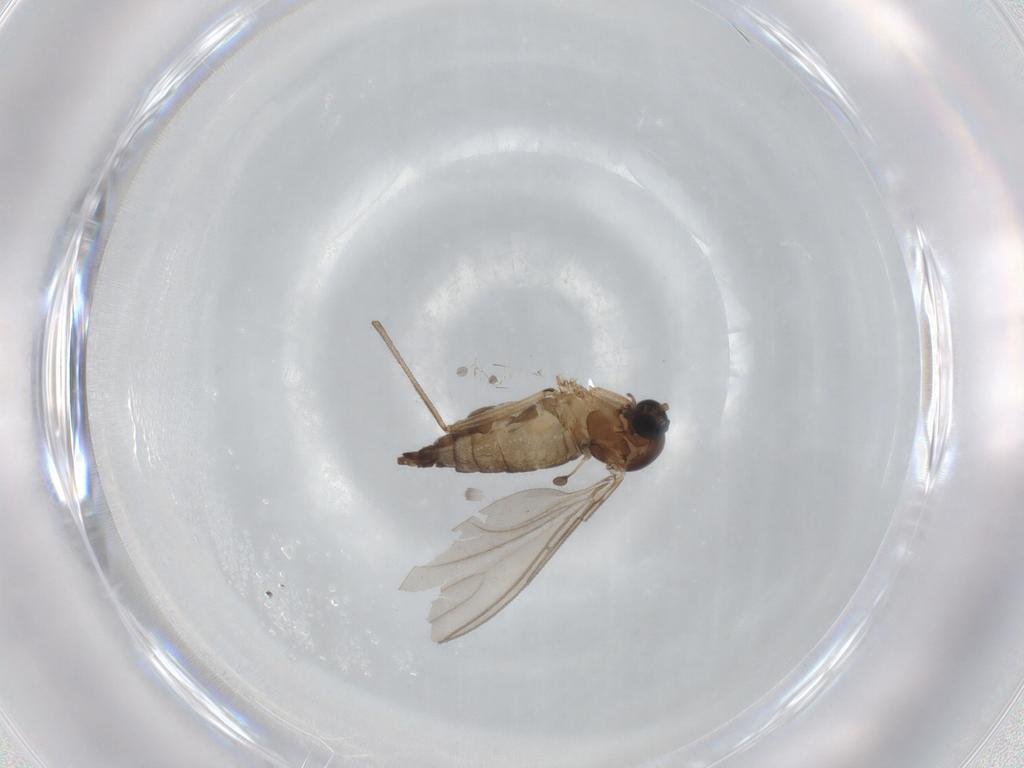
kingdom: Animalia
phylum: Arthropoda
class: Insecta
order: Diptera
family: Sciaridae
